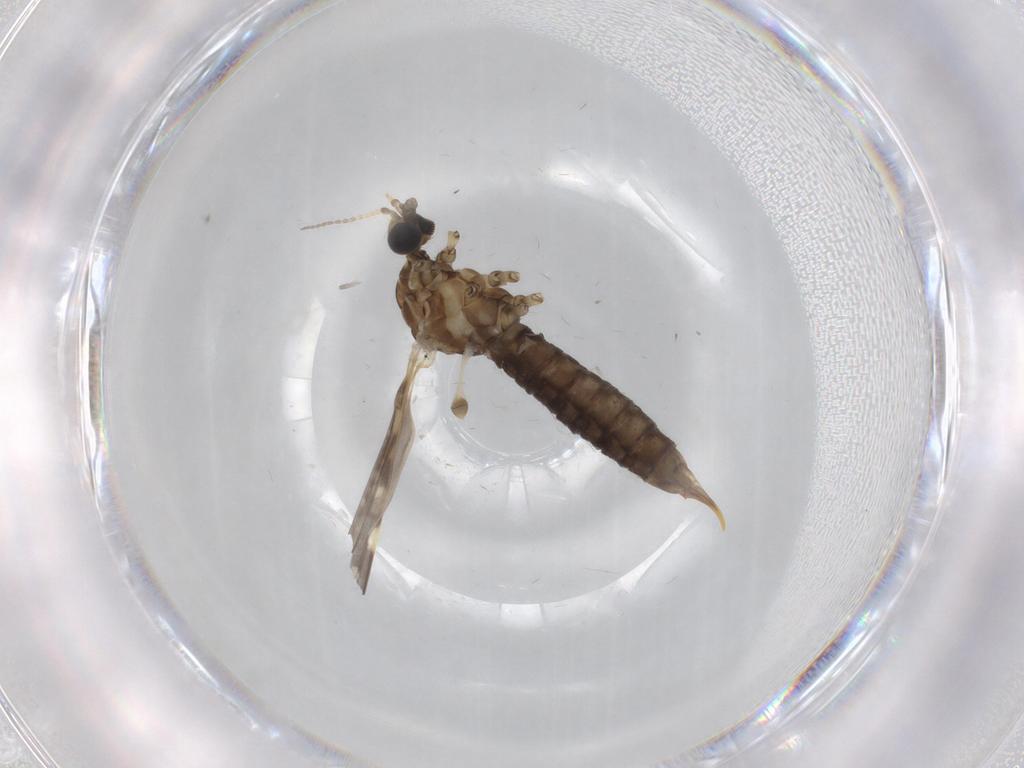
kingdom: Animalia
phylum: Arthropoda
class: Insecta
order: Diptera
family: Limoniidae
